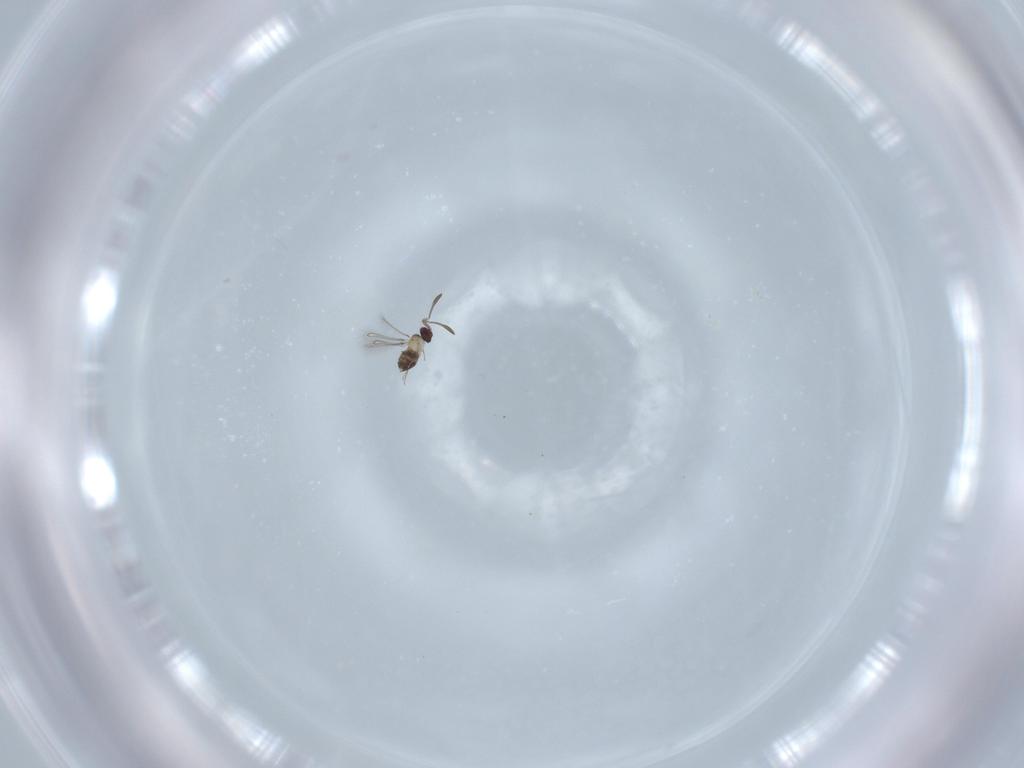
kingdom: Animalia
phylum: Arthropoda
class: Insecta
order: Hymenoptera
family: Mymaridae
